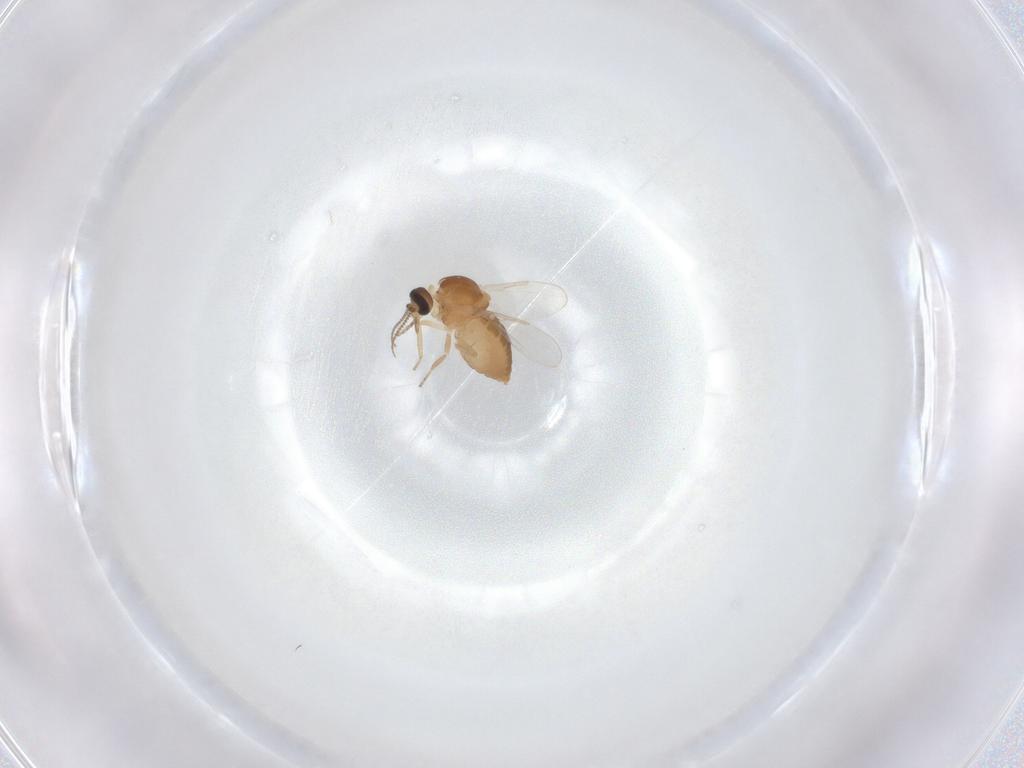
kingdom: Animalia
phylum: Arthropoda
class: Insecta
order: Diptera
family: Ceratopogonidae
